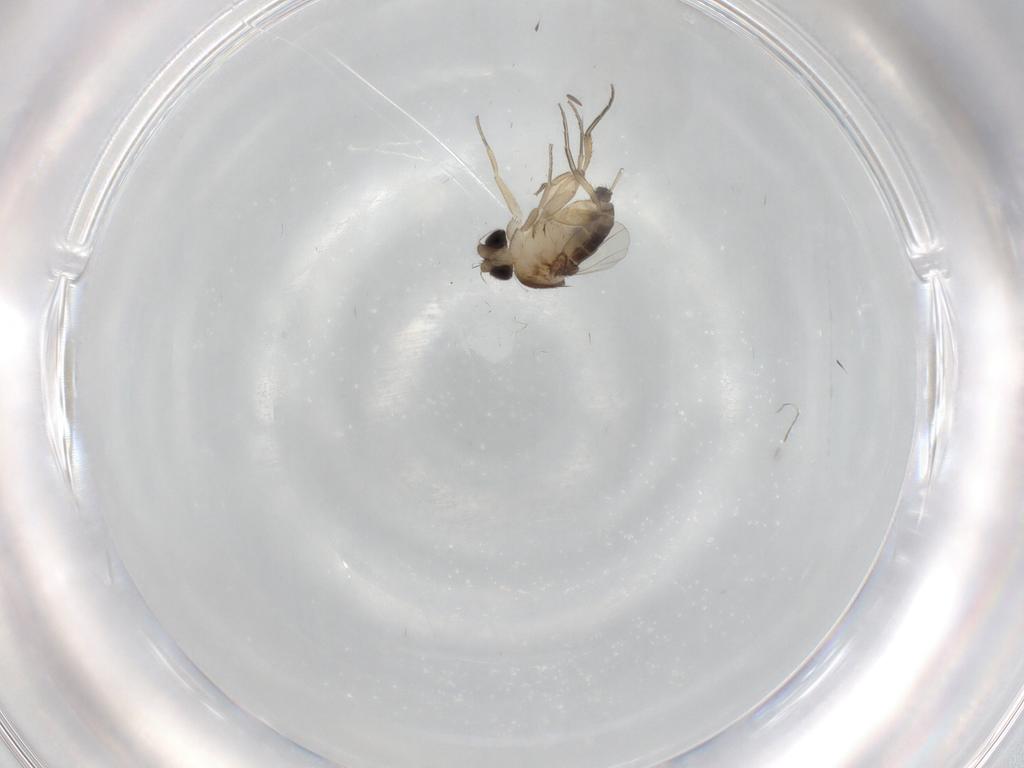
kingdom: Animalia
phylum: Arthropoda
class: Insecta
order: Diptera
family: Phoridae
